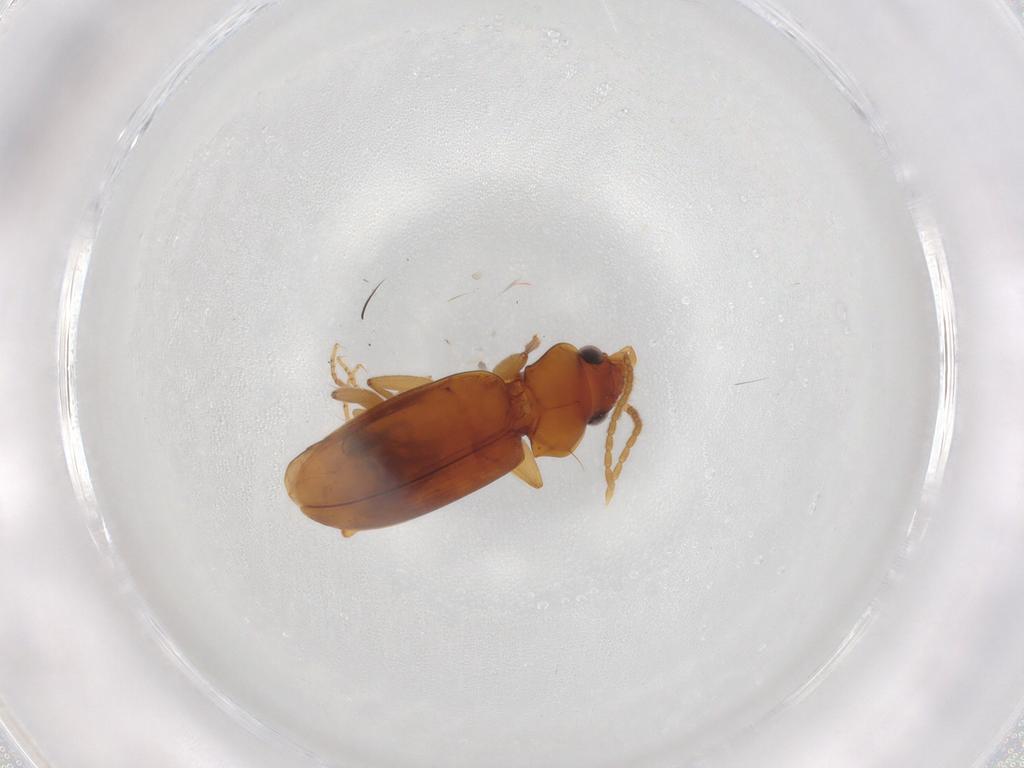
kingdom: Animalia
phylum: Arthropoda
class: Insecta
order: Coleoptera
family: Carabidae
